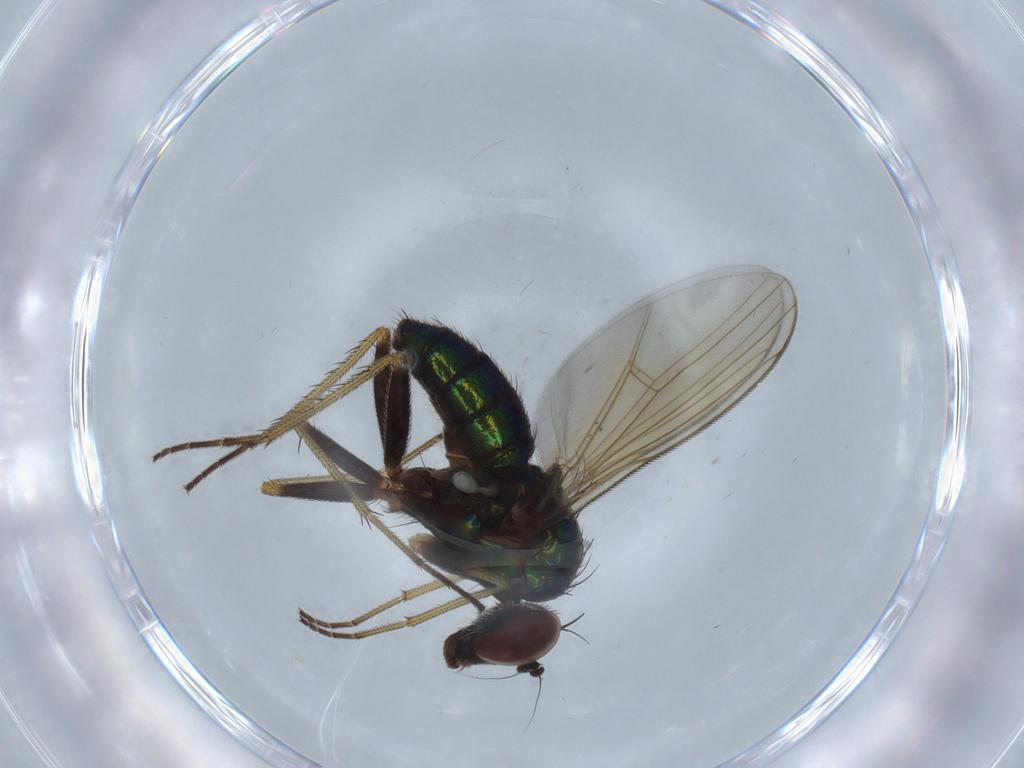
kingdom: Animalia
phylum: Arthropoda
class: Insecta
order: Diptera
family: Dolichopodidae
